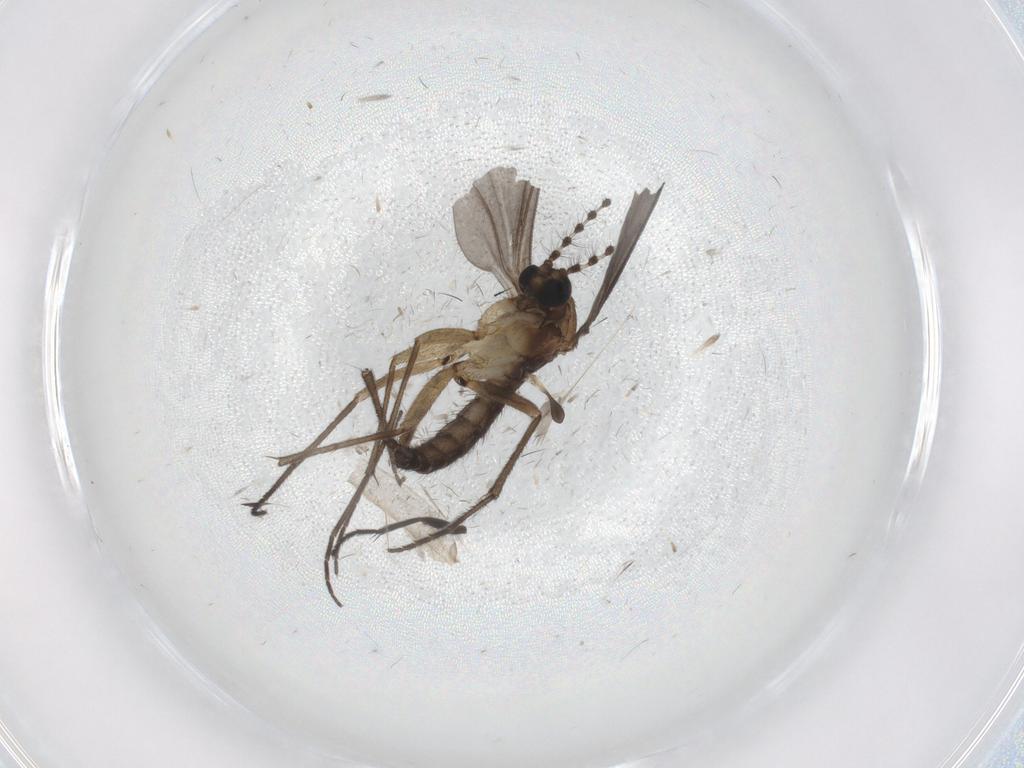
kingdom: Animalia
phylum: Arthropoda
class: Insecta
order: Diptera
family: Sciaridae
